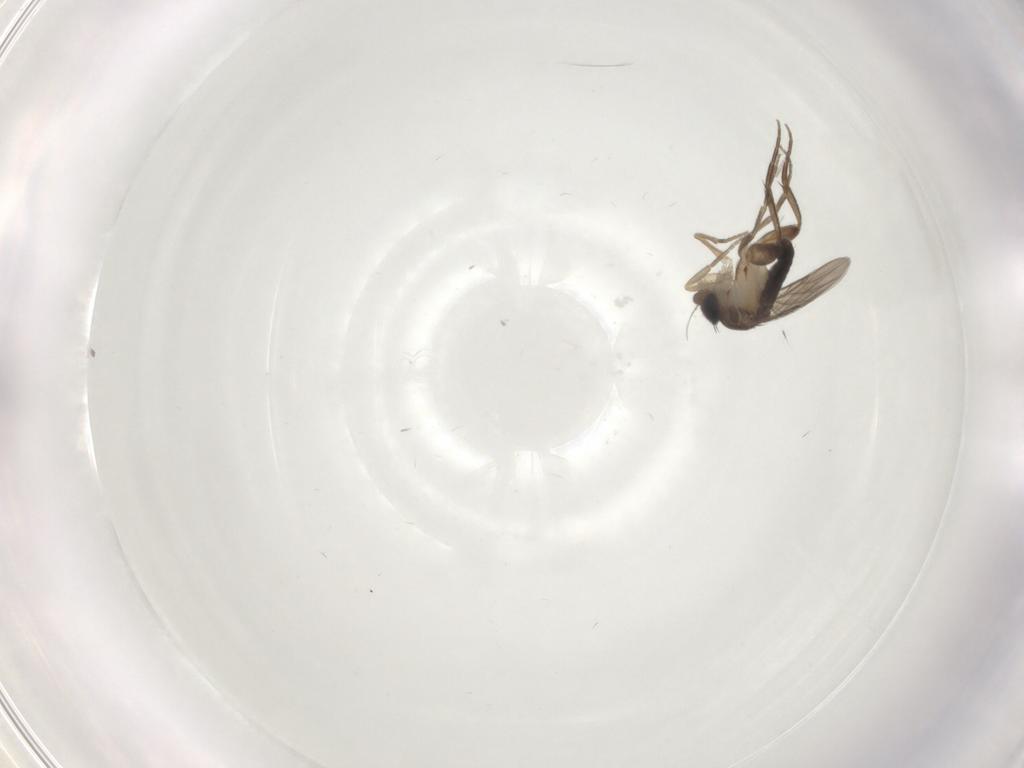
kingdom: Animalia
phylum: Arthropoda
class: Insecta
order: Diptera
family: Phoridae
